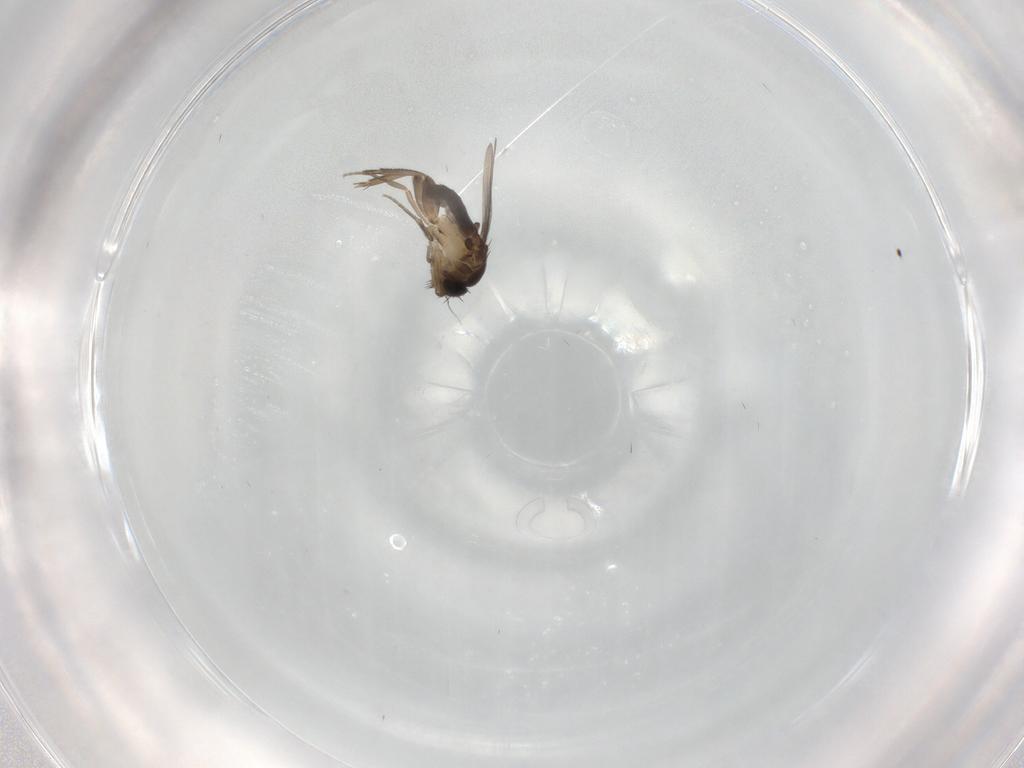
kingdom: Animalia
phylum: Arthropoda
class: Insecta
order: Diptera
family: Phoridae
